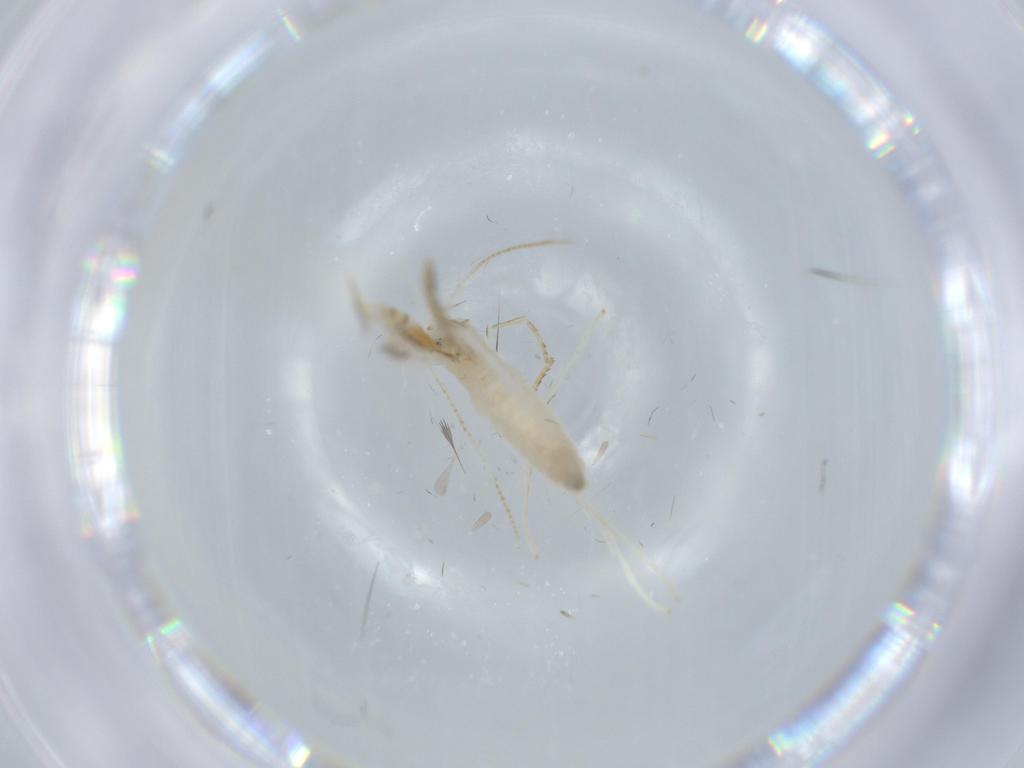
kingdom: Animalia
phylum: Arthropoda
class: Insecta
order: Lepidoptera
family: Gracillariidae
